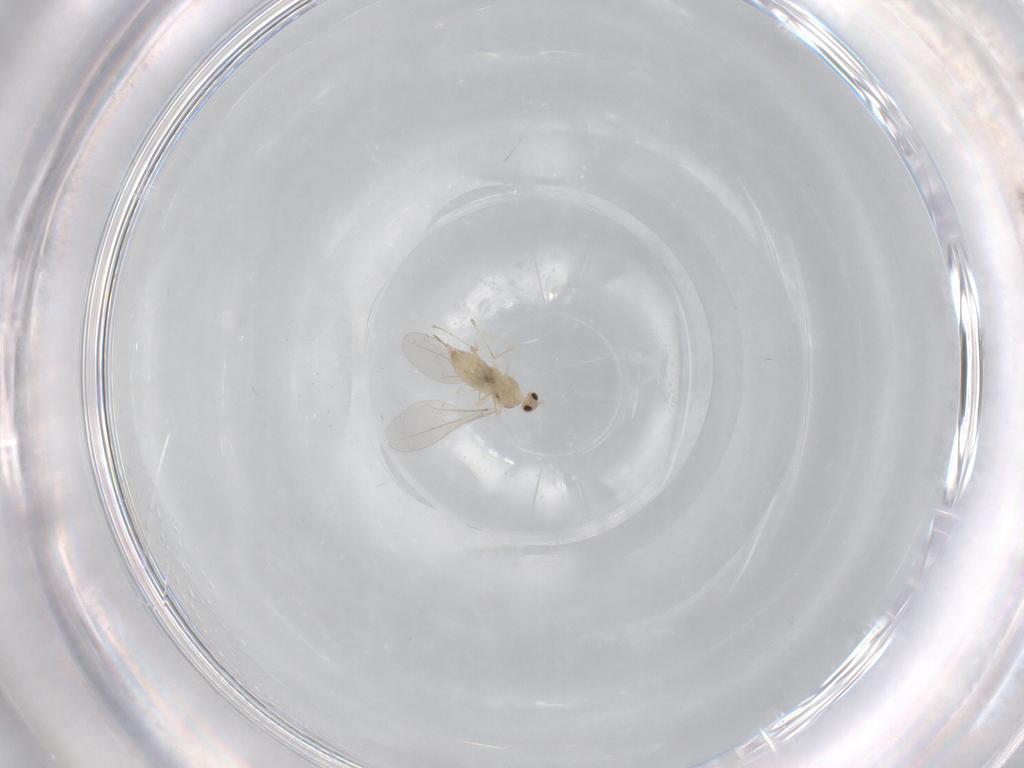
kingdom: Animalia
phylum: Arthropoda
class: Insecta
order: Diptera
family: Cecidomyiidae
